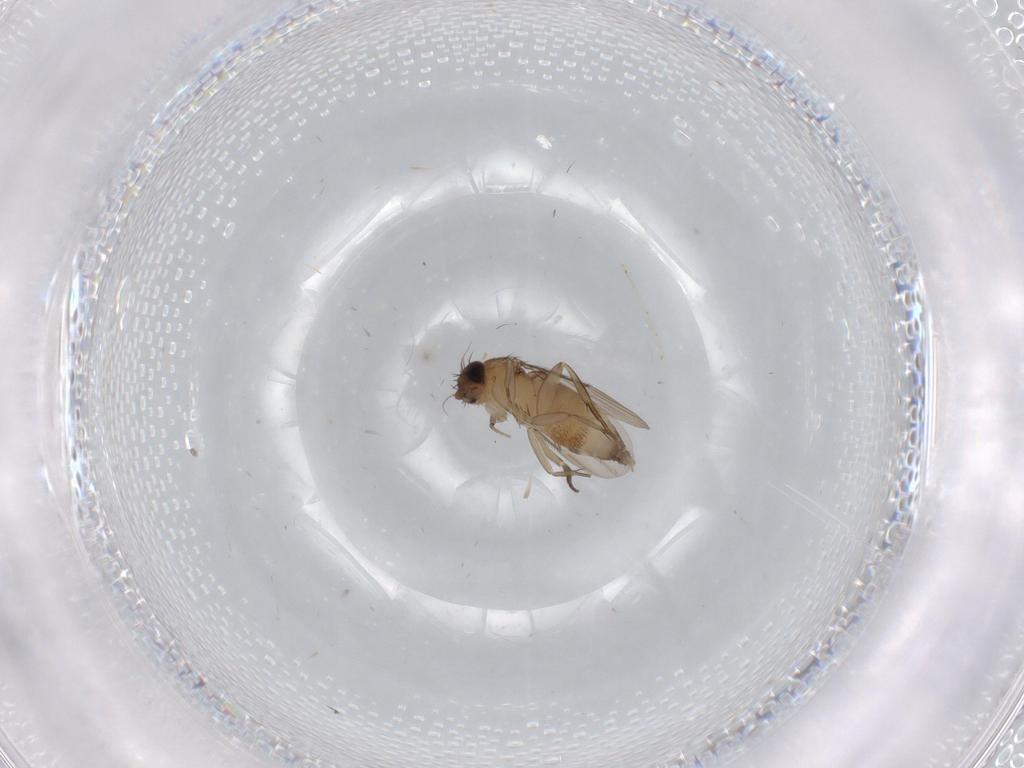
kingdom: Animalia
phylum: Arthropoda
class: Insecta
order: Diptera
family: Phoridae
